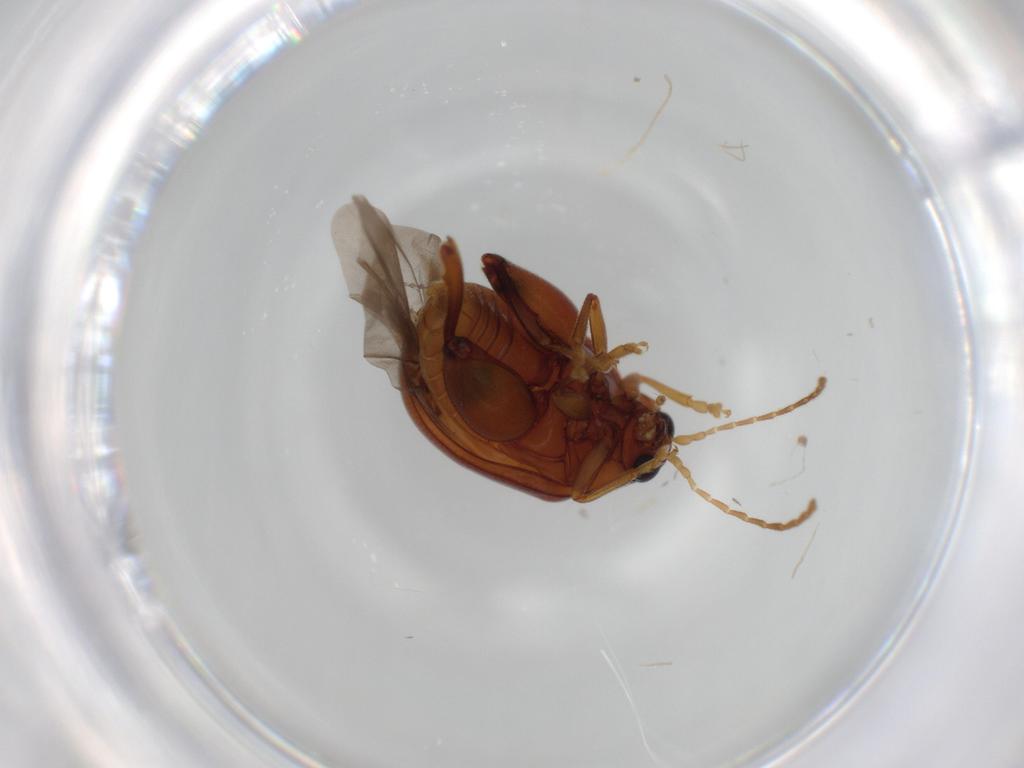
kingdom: Animalia
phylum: Arthropoda
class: Insecta
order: Coleoptera
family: Chrysomelidae
